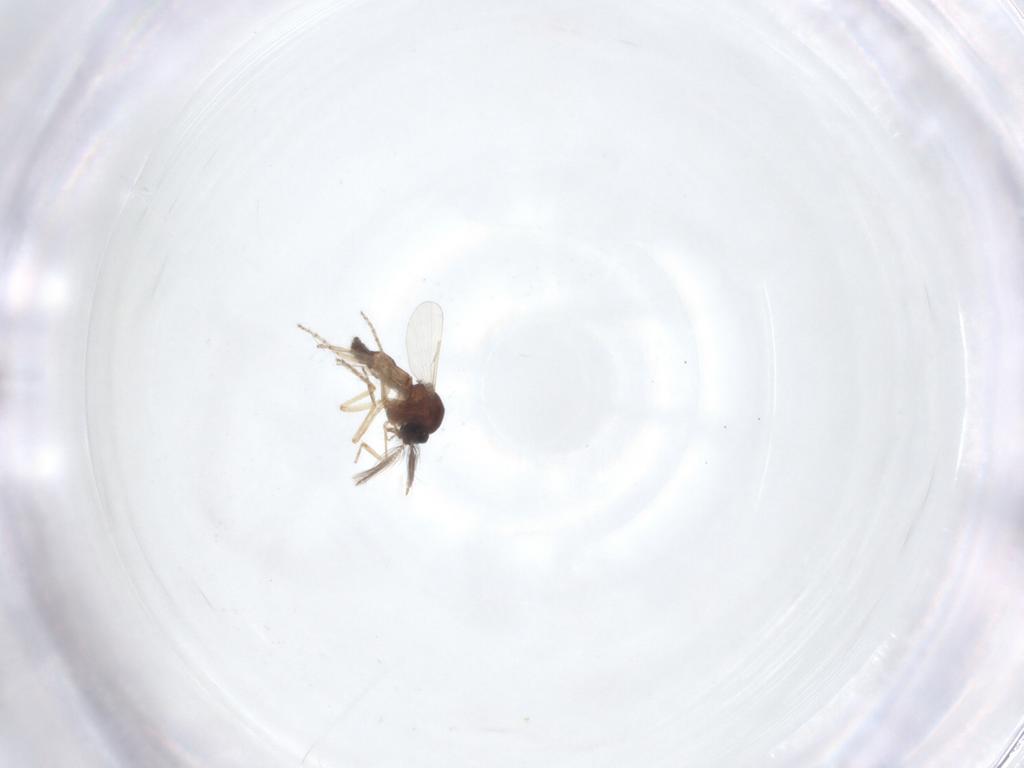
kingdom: Animalia
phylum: Arthropoda
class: Insecta
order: Diptera
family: Ceratopogonidae
